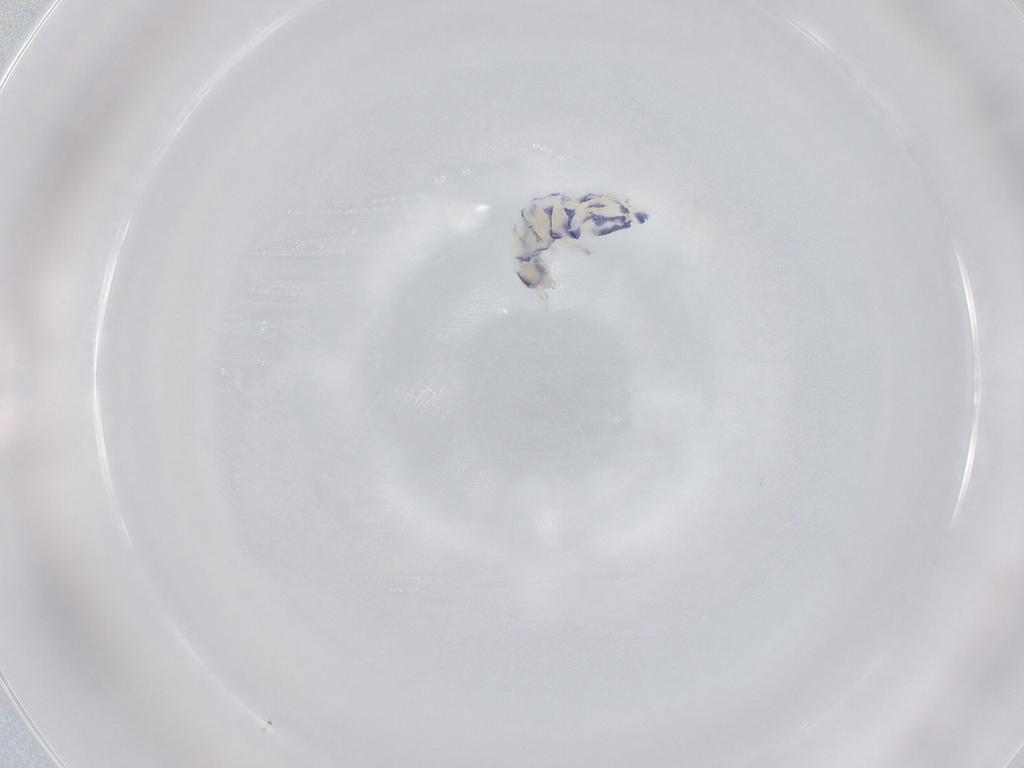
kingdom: Animalia
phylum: Arthropoda
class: Collembola
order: Entomobryomorpha
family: Entomobryidae
